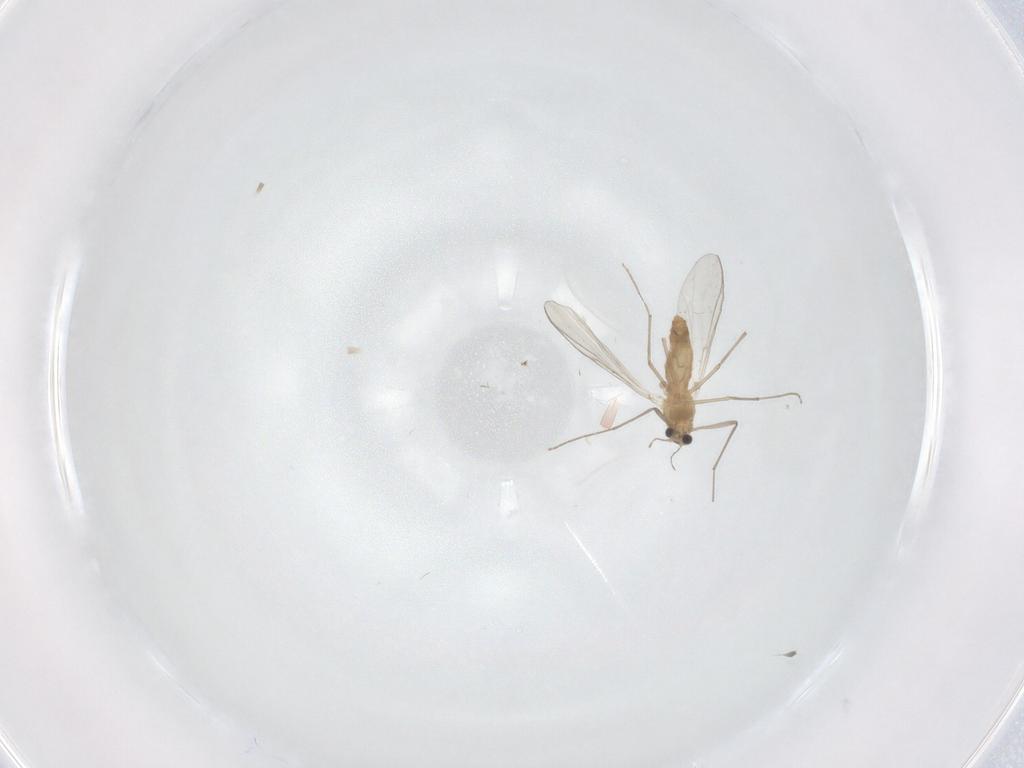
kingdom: Animalia
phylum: Arthropoda
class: Insecta
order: Diptera
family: Chironomidae
